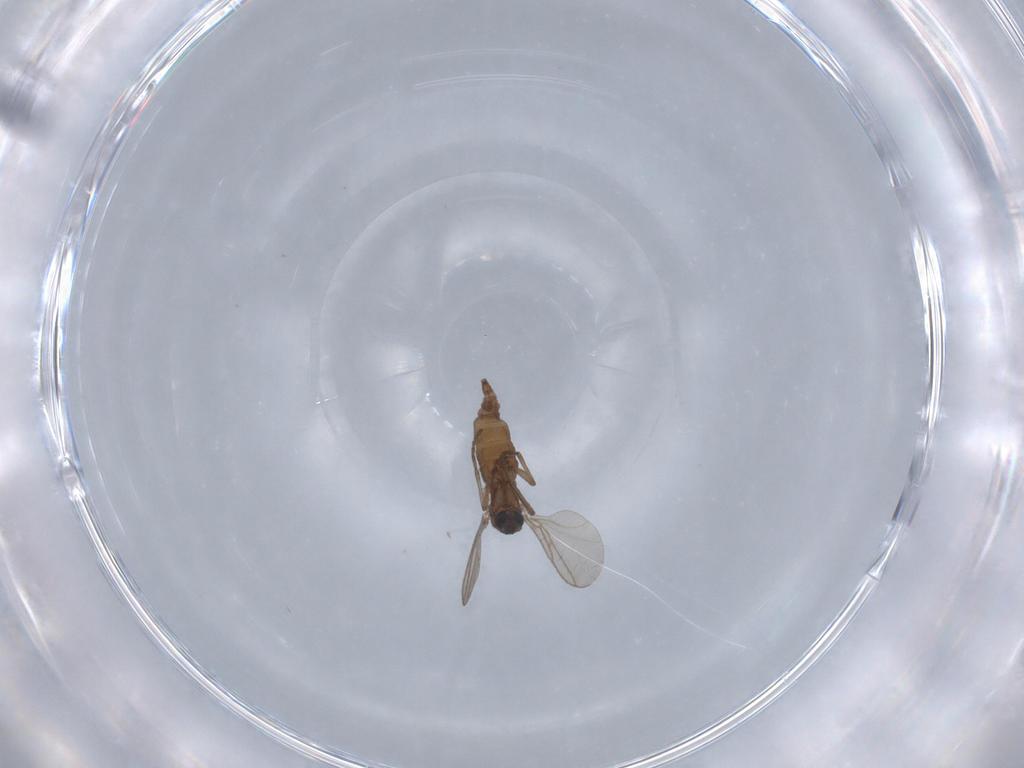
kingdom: Animalia
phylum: Arthropoda
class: Insecta
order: Diptera
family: Cecidomyiidae
